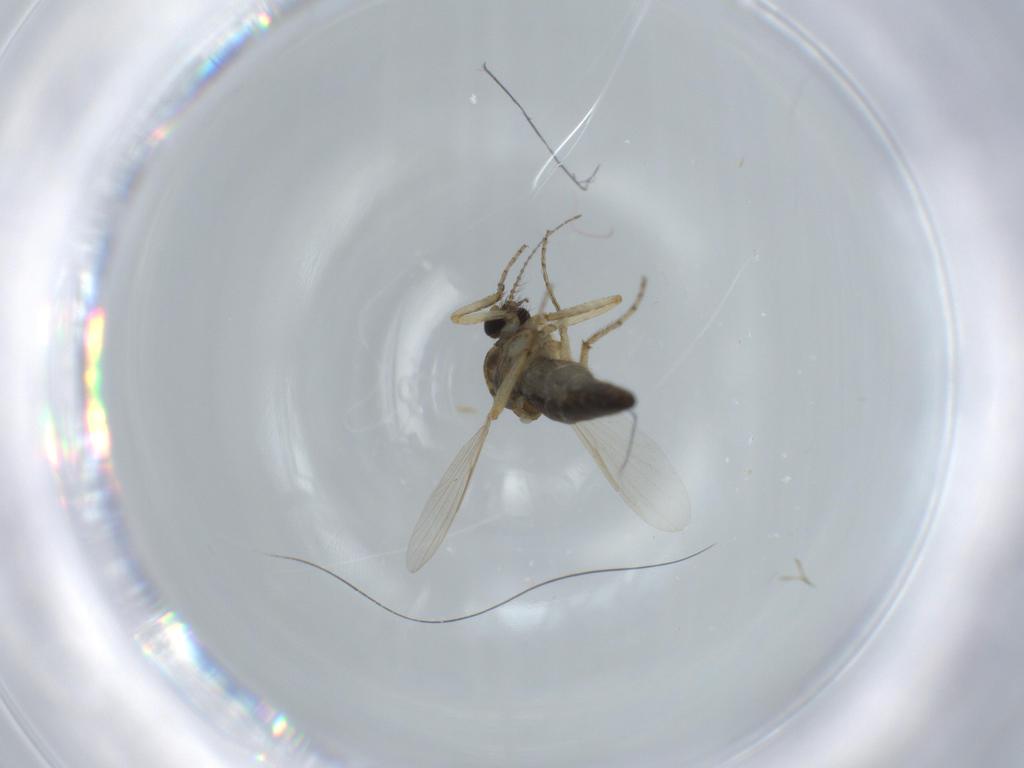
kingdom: Animalia
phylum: Arthropoda
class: Insecta
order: Diptera
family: Ceratopogonidae
